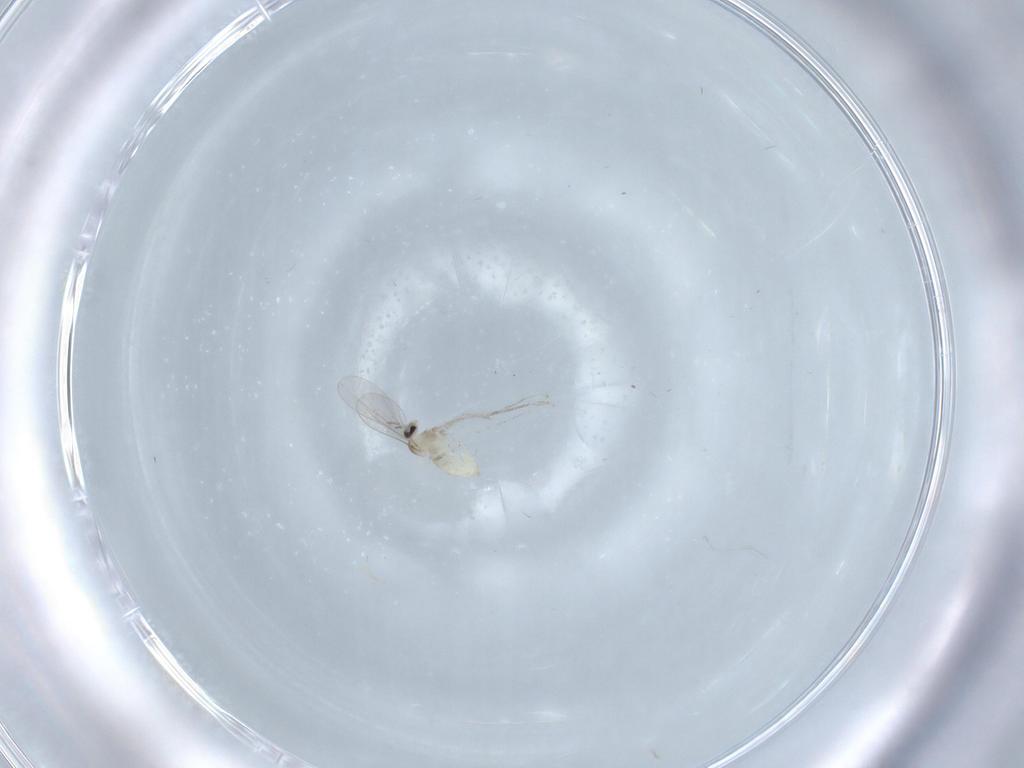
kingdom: Animalia
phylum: Arthropoda
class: Insecta
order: Diptera
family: Cecidomyiidae
